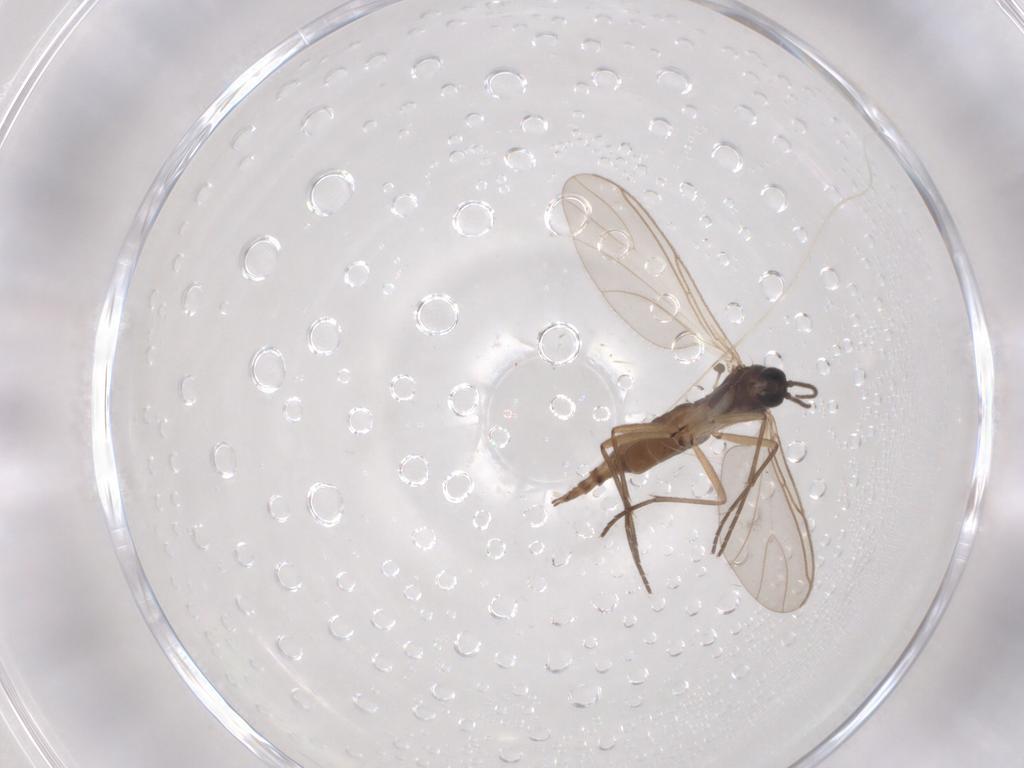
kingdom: Animalia
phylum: Arthropoda
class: Insecta
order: Diptera
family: Sciaridae
